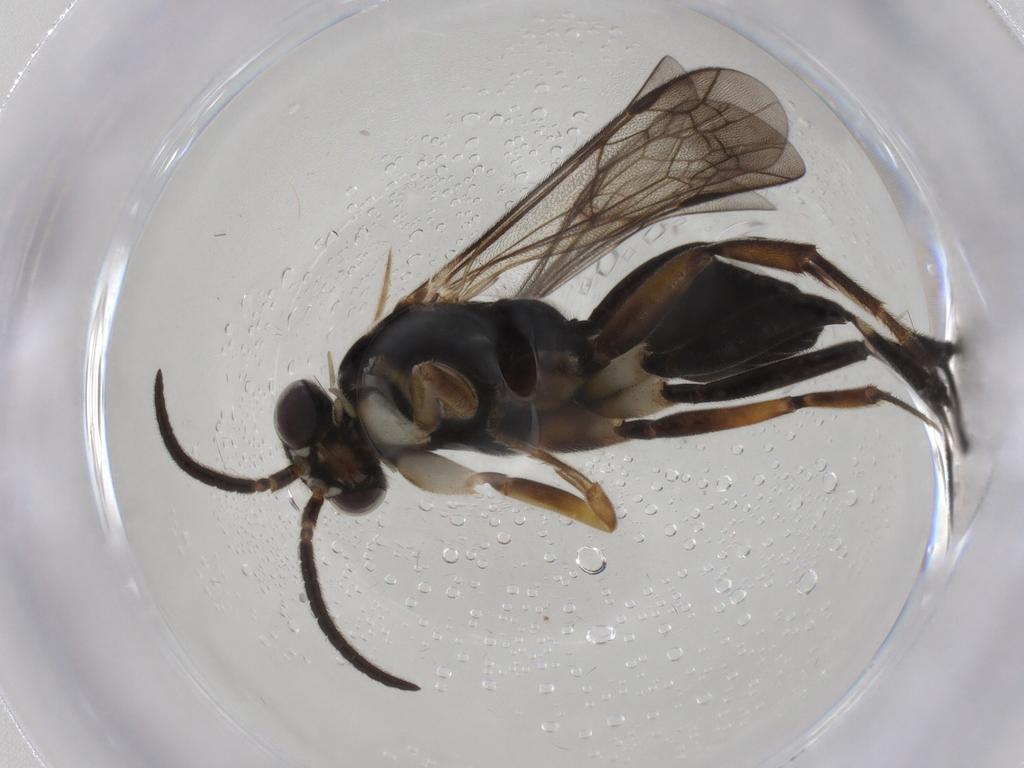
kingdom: Animalia
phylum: Arthropoda
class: Insecta
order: Hymenoptera
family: Pompilidae
